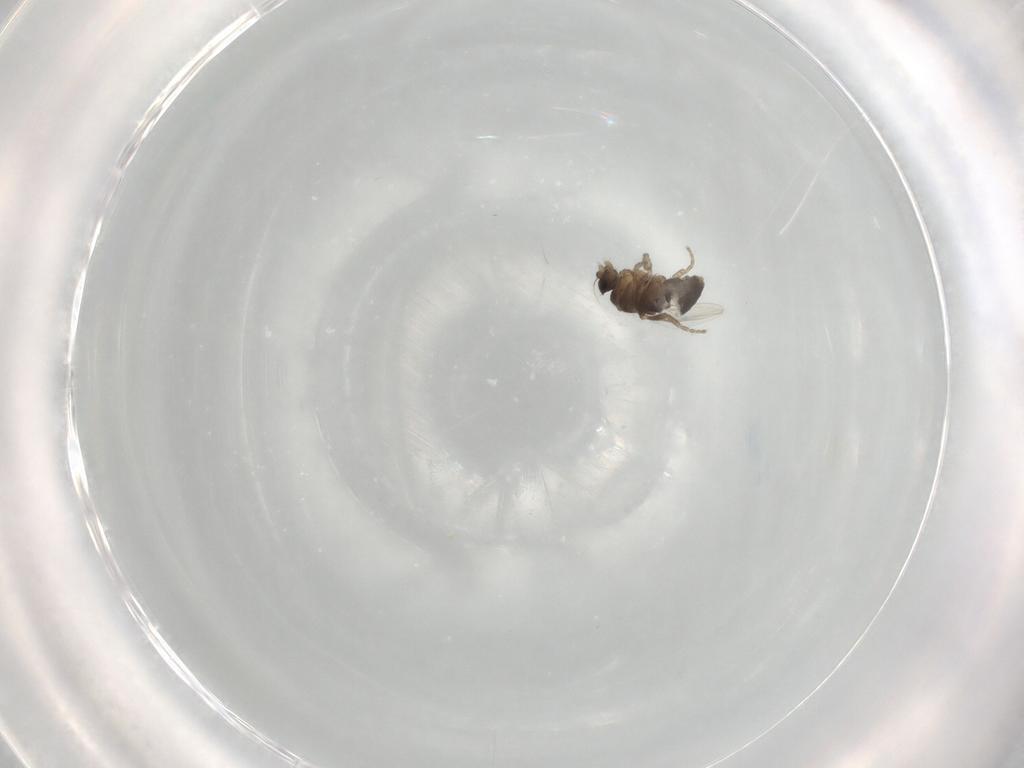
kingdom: Animalia
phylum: Arthropoda
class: Insecta
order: Diptera
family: Phoridae
